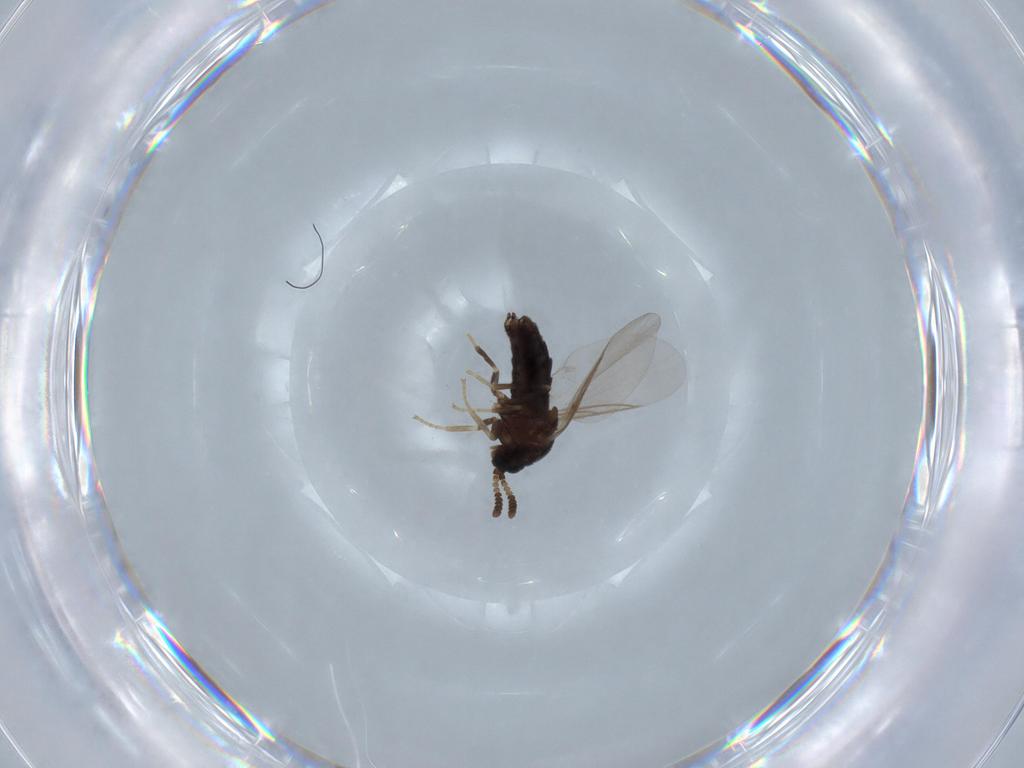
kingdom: Animalia
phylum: Arthropoda
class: Insecta
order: Diptera
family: Hybotidae
